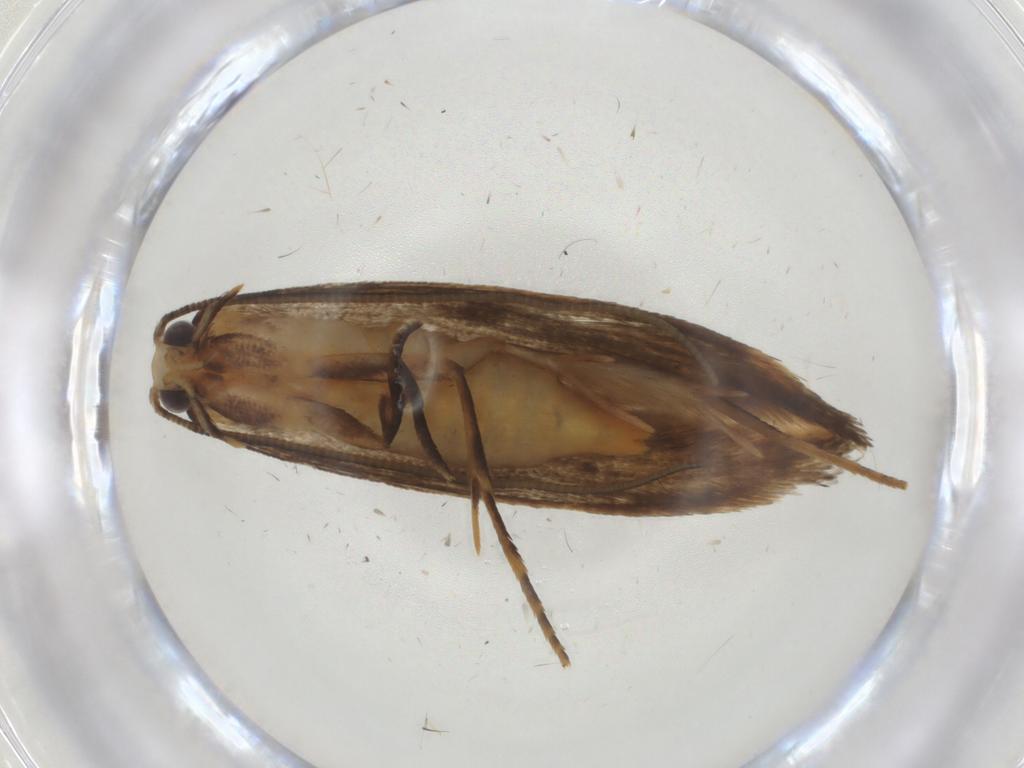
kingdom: Animalia
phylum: Arthropoda
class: Insecta
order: Lepidoptera
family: Tineidae
